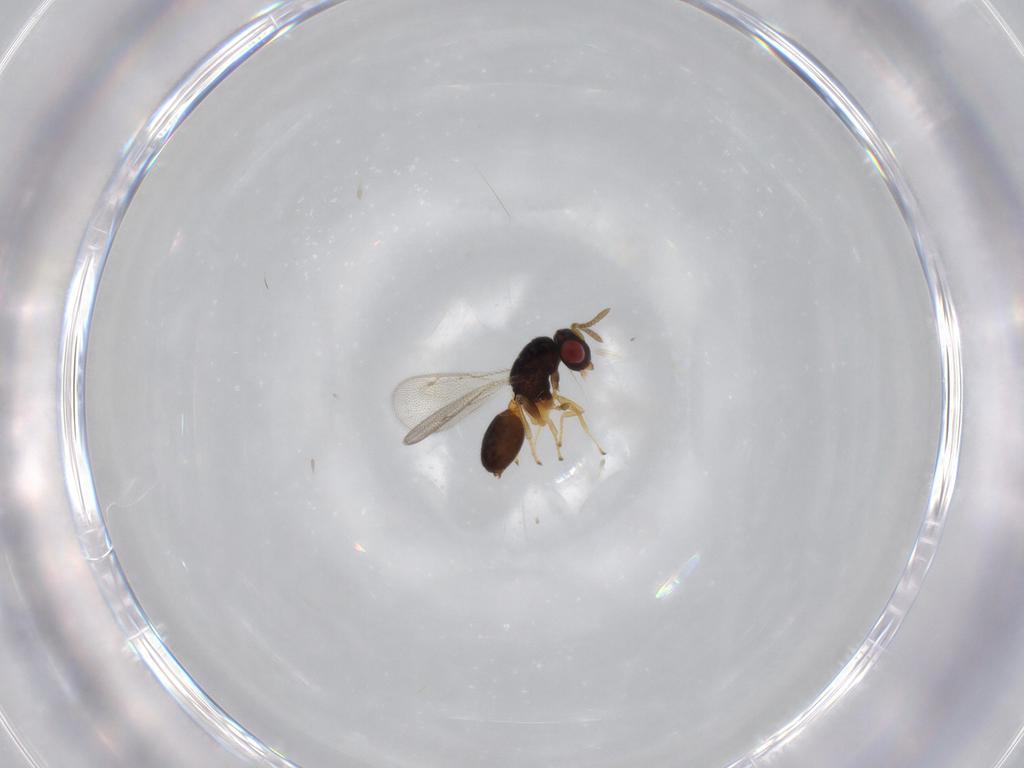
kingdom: Animalia
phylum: Arthropoda
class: Insecta
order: Hymenoptera
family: Eurytomidae
